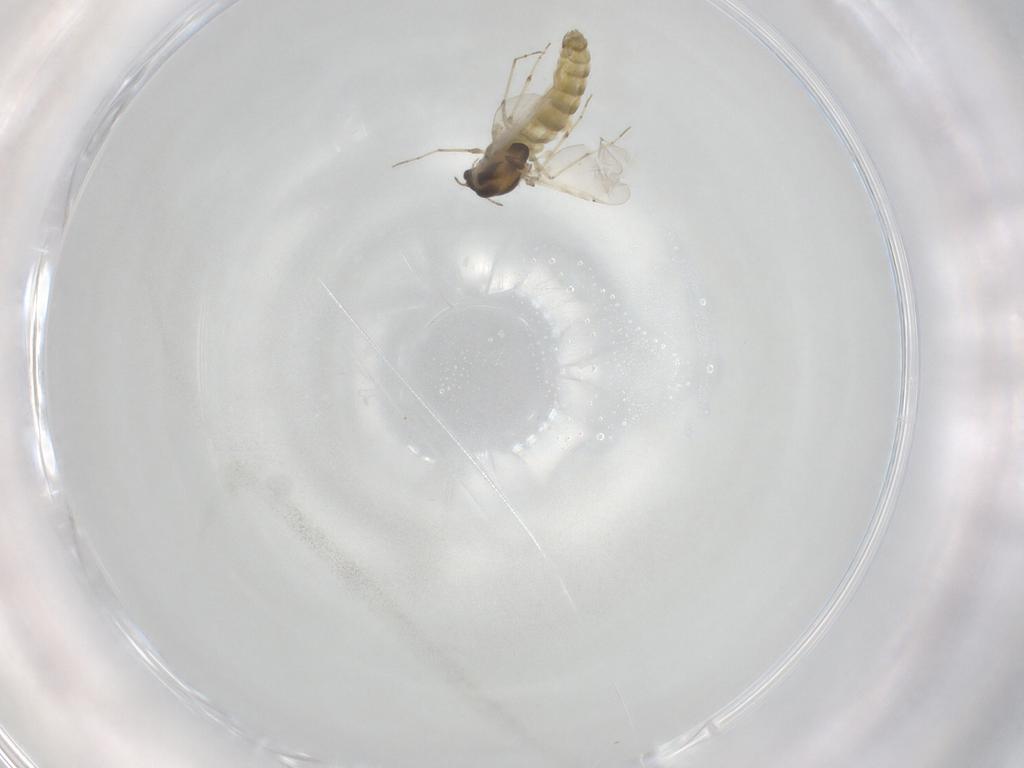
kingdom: Animalia
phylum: Arthropoda
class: Insecta
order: Diptera
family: Chironomidae
